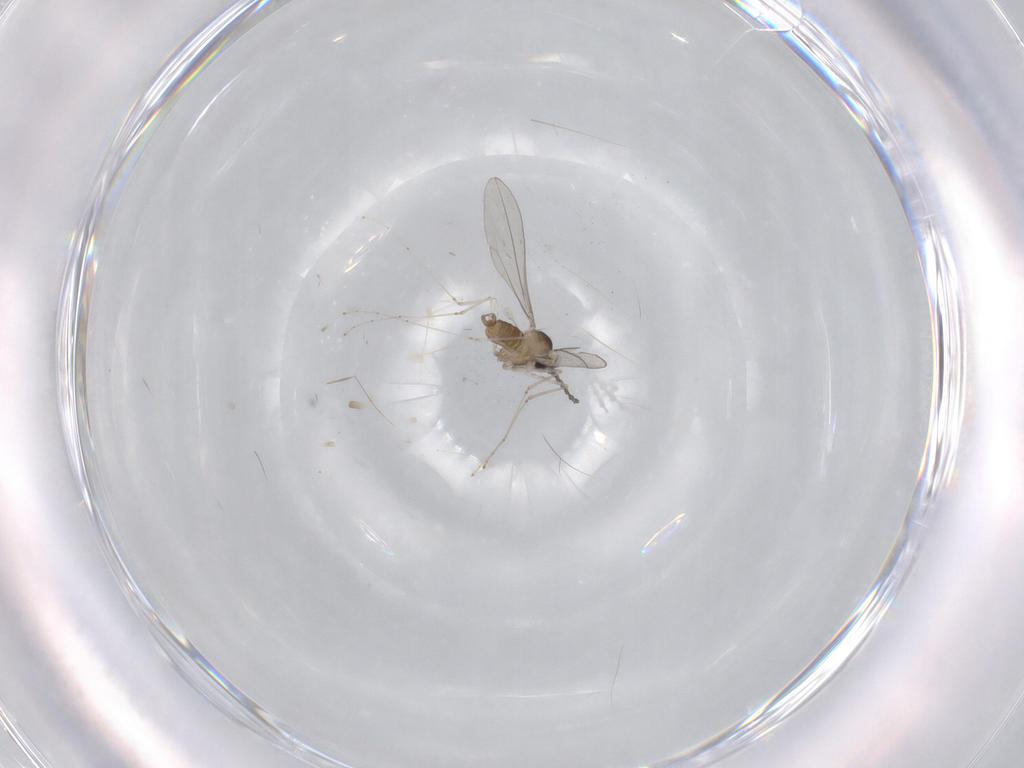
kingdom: Animalia
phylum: Arthropoda
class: Insecta
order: Diptera
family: Cecidomyiidae
